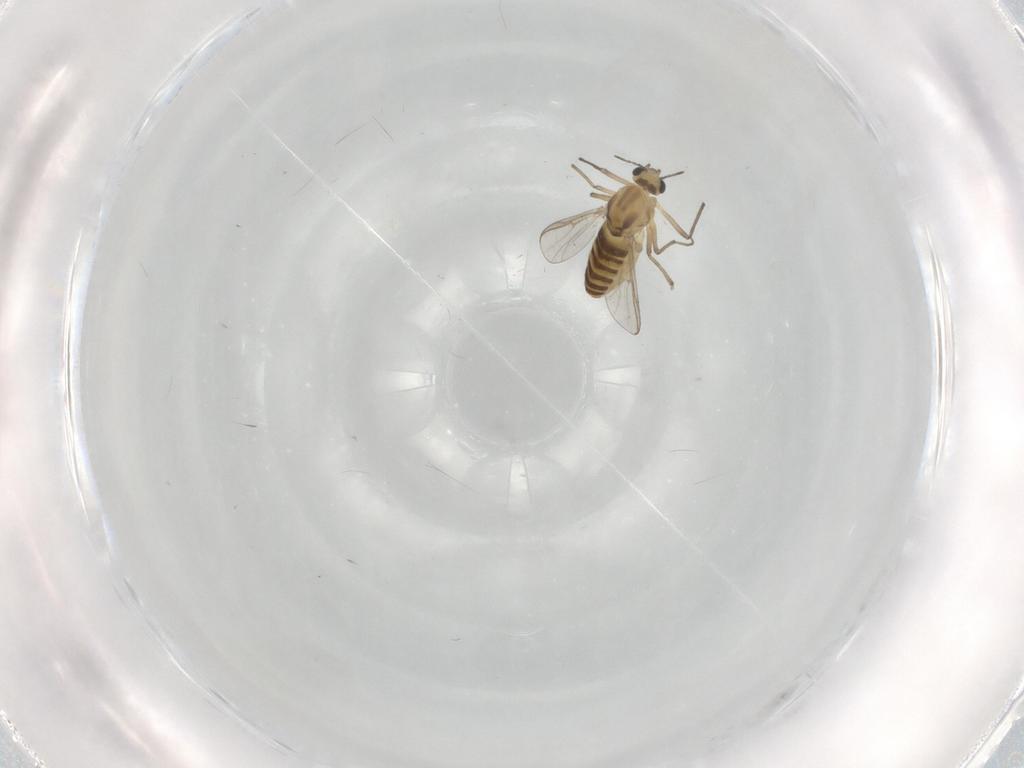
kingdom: Animalia
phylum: Arthropoda
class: Insecta
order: Diptera
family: Chironomidae
